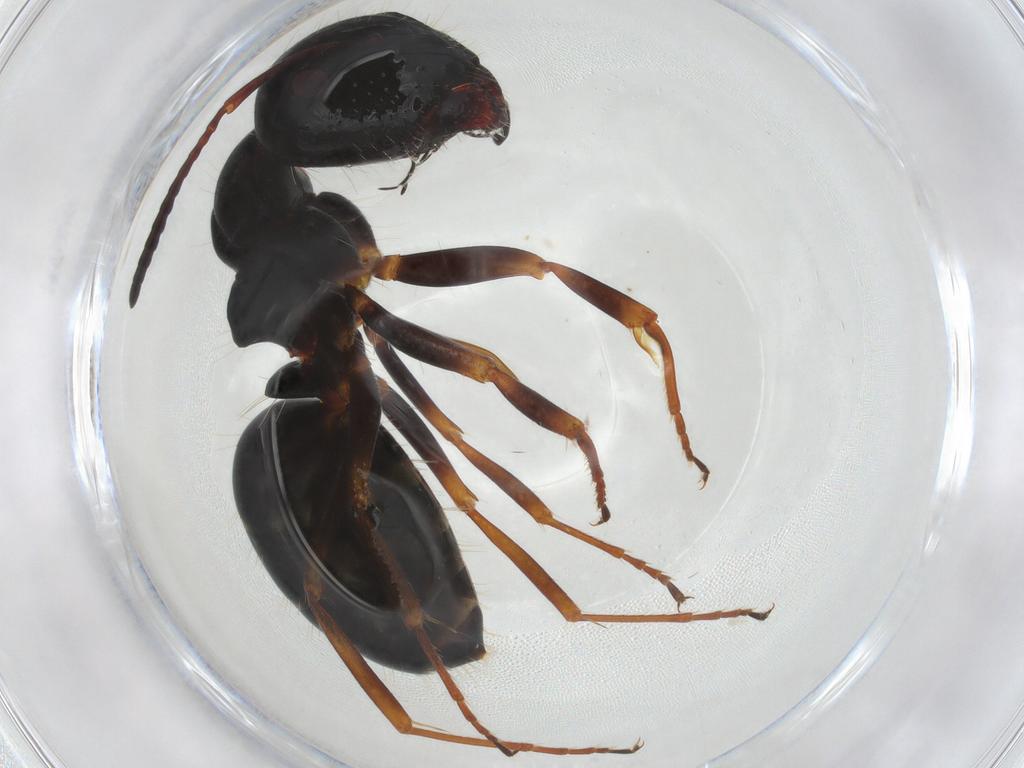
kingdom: Animalia
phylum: Arthropoda
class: Insecta
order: Hymenoptera
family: Formicidae
